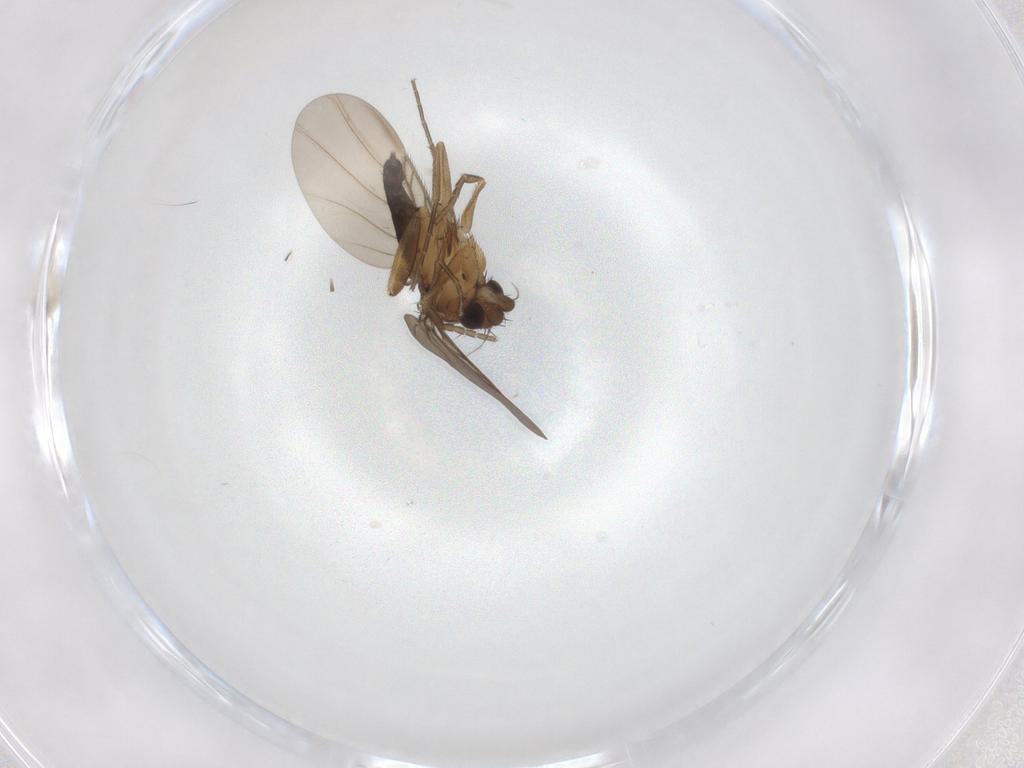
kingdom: Animalia
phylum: Arthropoda
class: Insecta
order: Diptera
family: Phoridae
